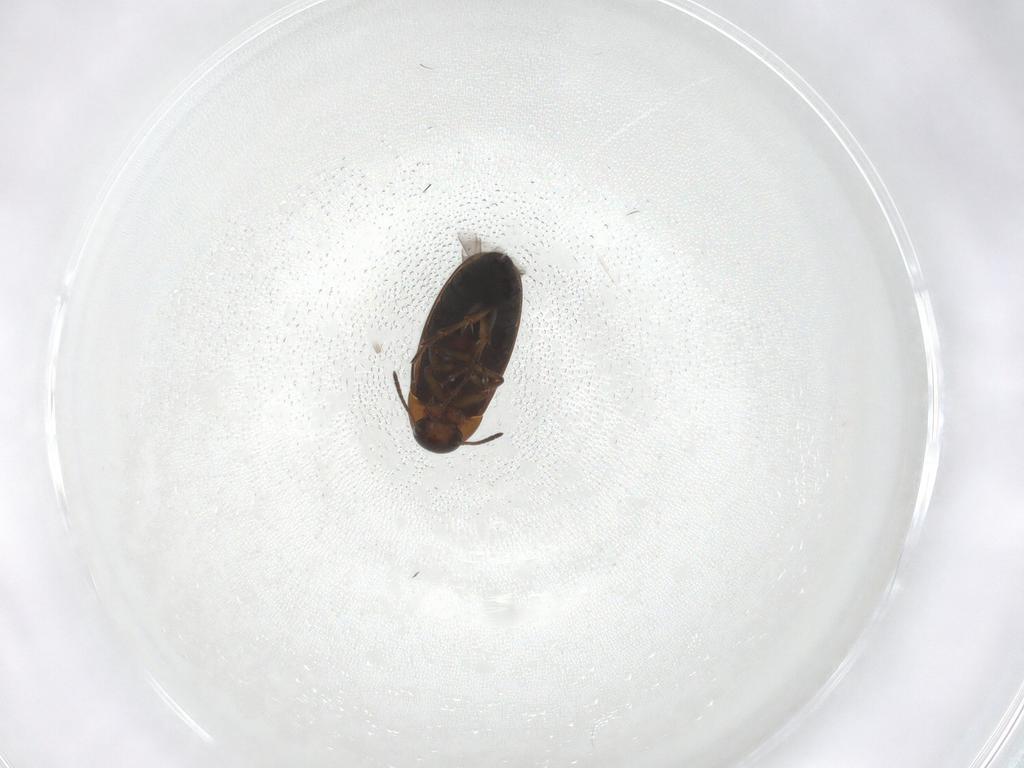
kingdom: Animalia
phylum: Arthropoda
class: Insecta
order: Coleoptera
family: Scraptiidae
